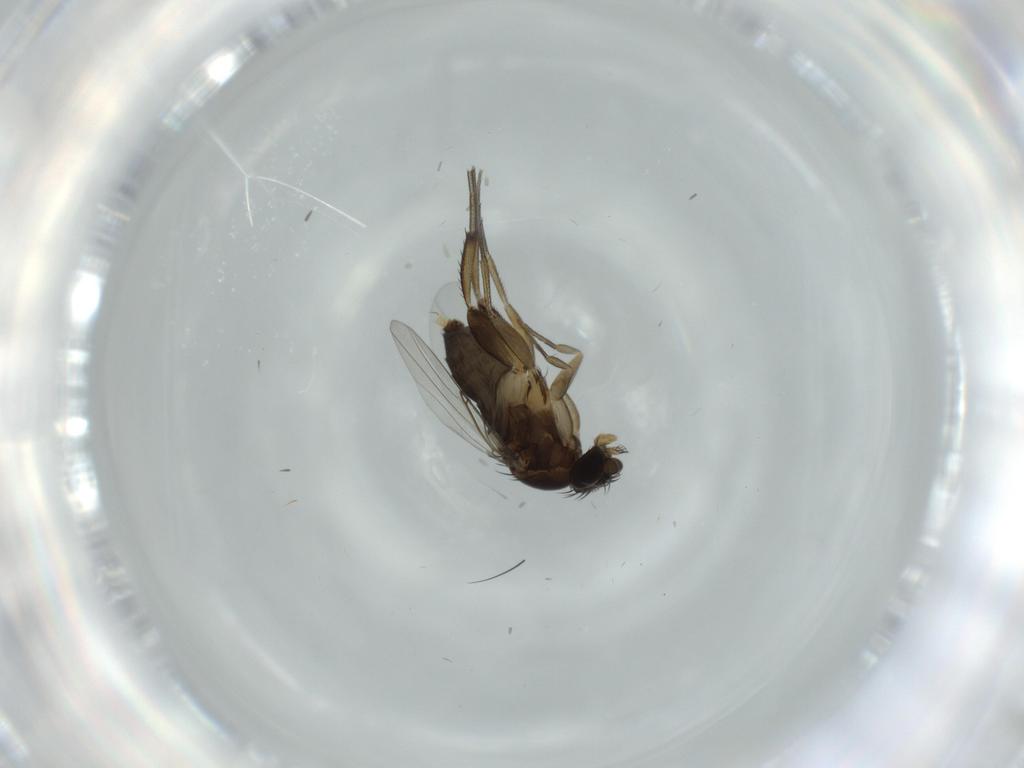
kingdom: Animalia
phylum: Arthropoda
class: Insecta
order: Diptera
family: Phoridae
